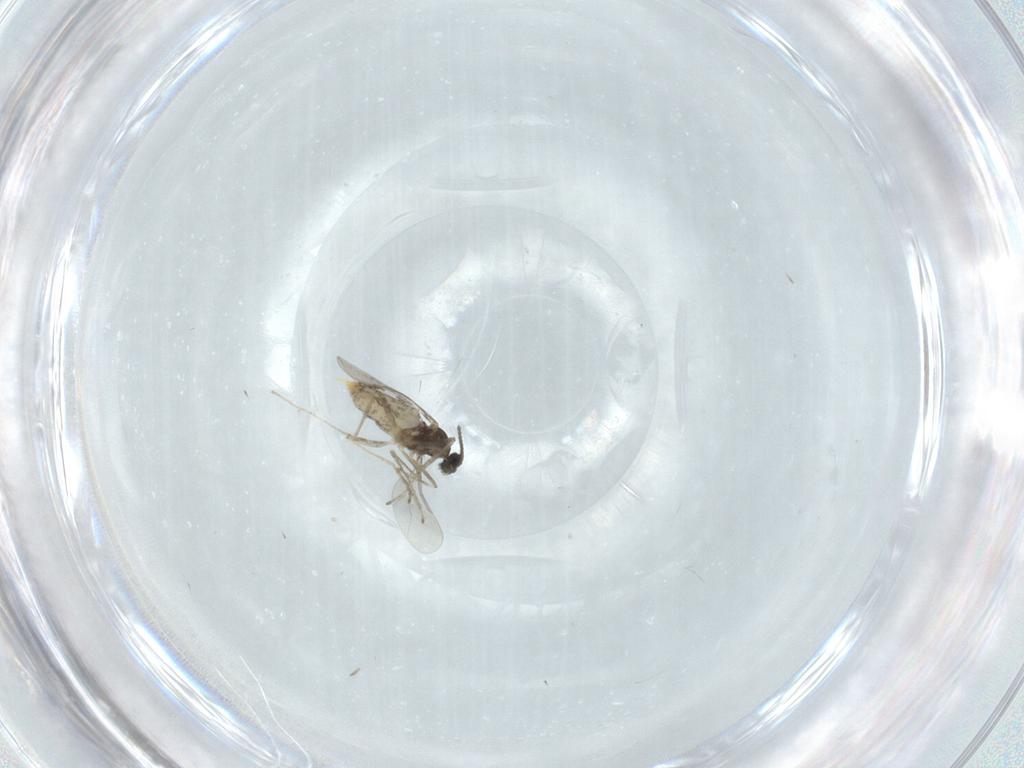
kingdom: Animalia
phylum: Arthropoda
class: Insecta
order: Diptera
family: Cecidomyiidae
